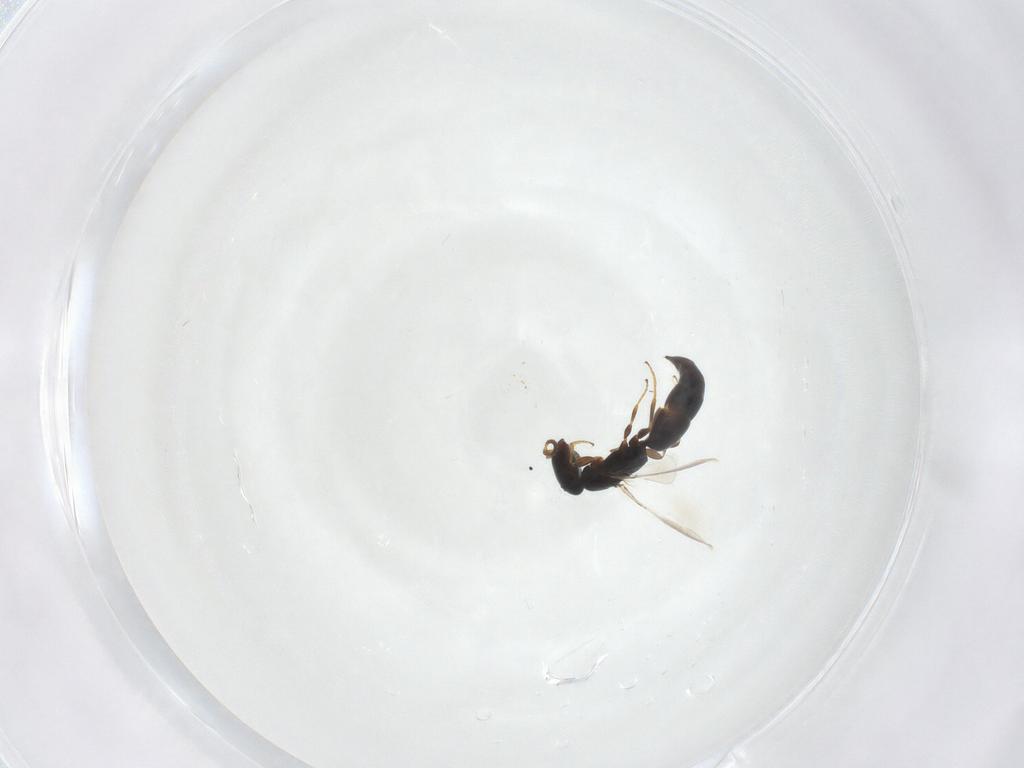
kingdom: Animalia
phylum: Arthropoda
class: Insecta
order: Hymenoptera
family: Bethylidae
